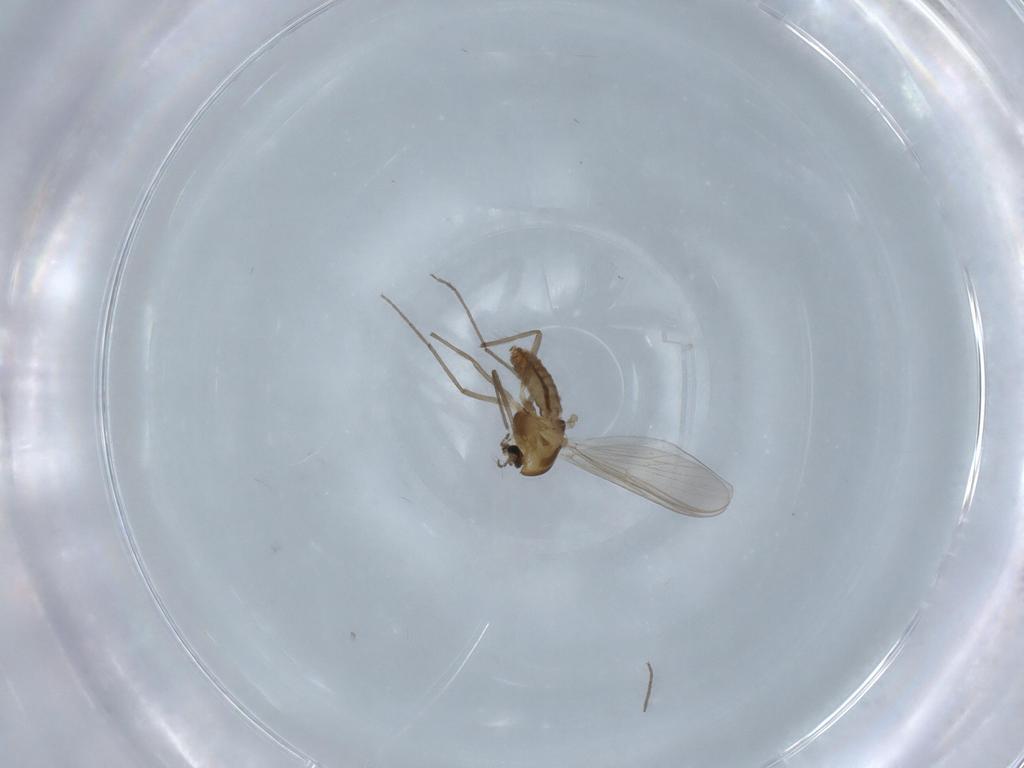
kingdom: Animalia
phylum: Arthropoda
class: Insecta
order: Diptera
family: Chironomidae
